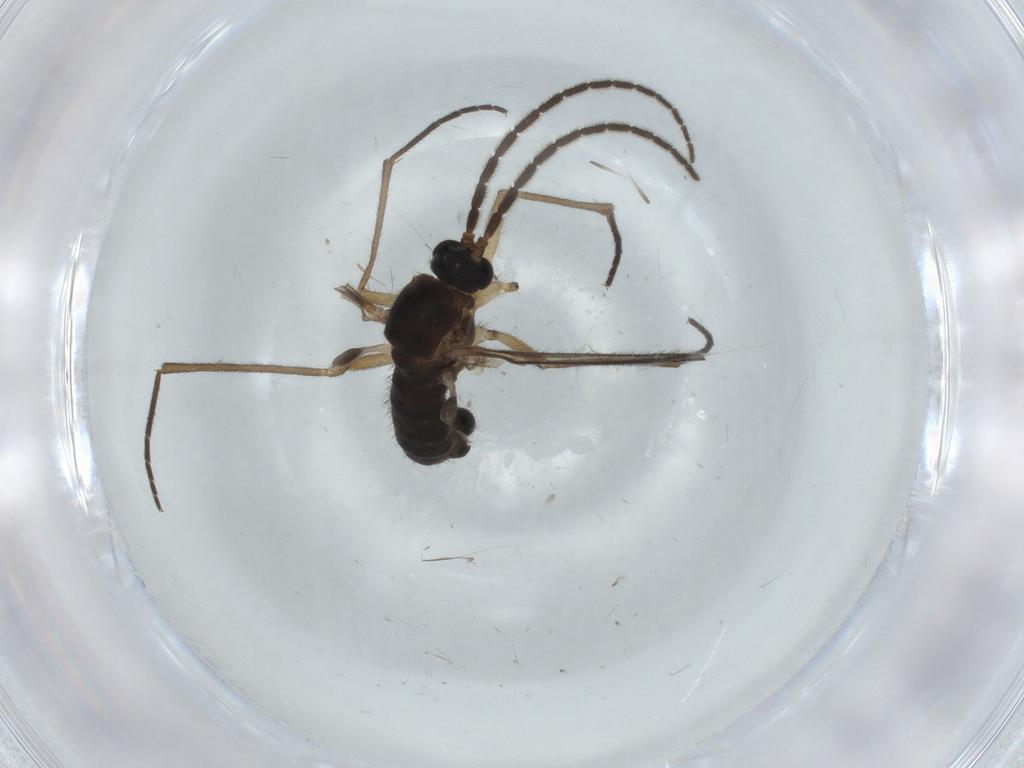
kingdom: Animalia
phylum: Arthropoda
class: Insecta
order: Diptera
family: Sciaridae
